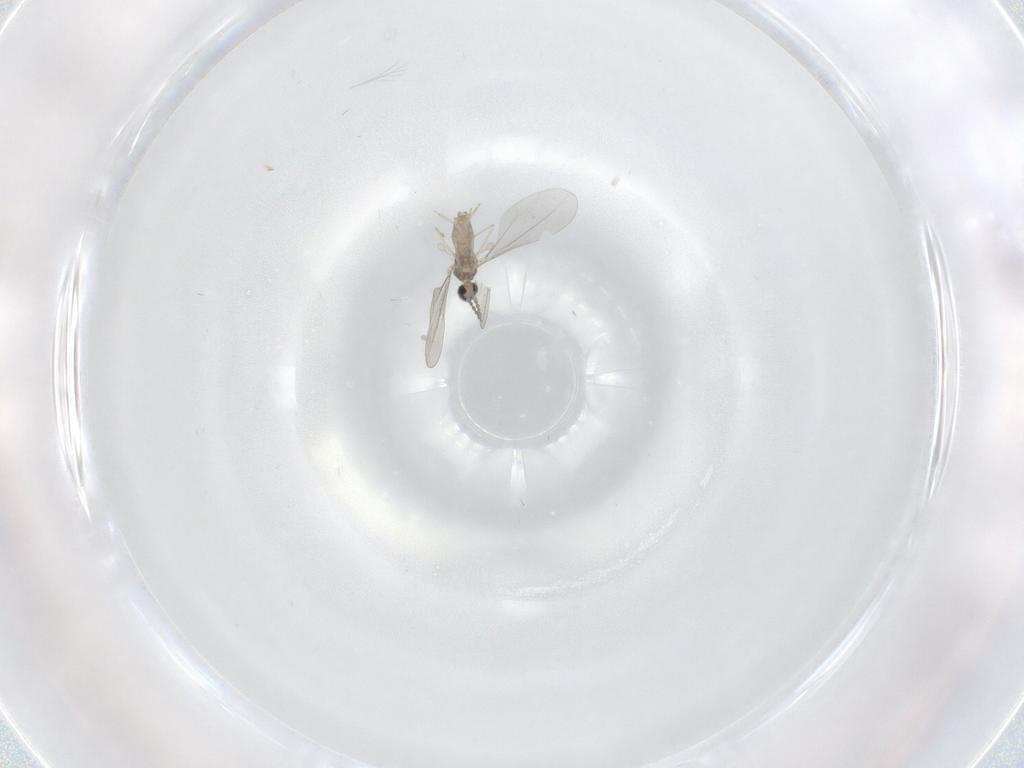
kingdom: Animalia
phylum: Arthropoda
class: Insecta
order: Diptera
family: Cecidomyiidae
